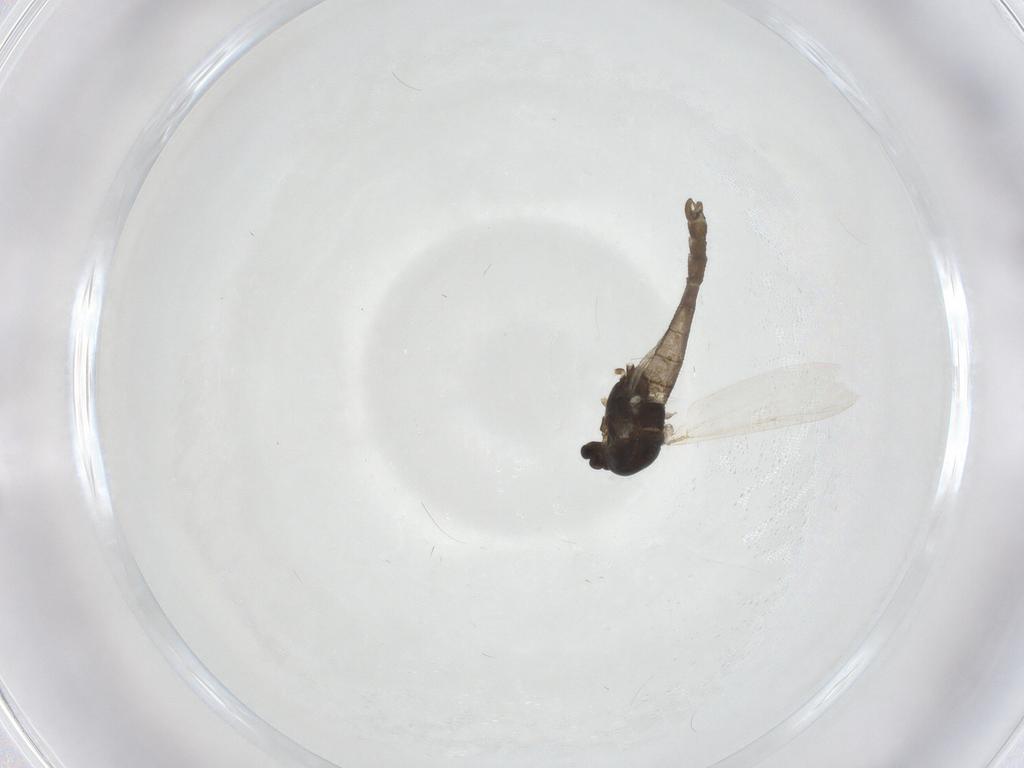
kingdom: Animalia
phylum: Arthropoda
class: Insecta
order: Diptera
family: Chironomidae
